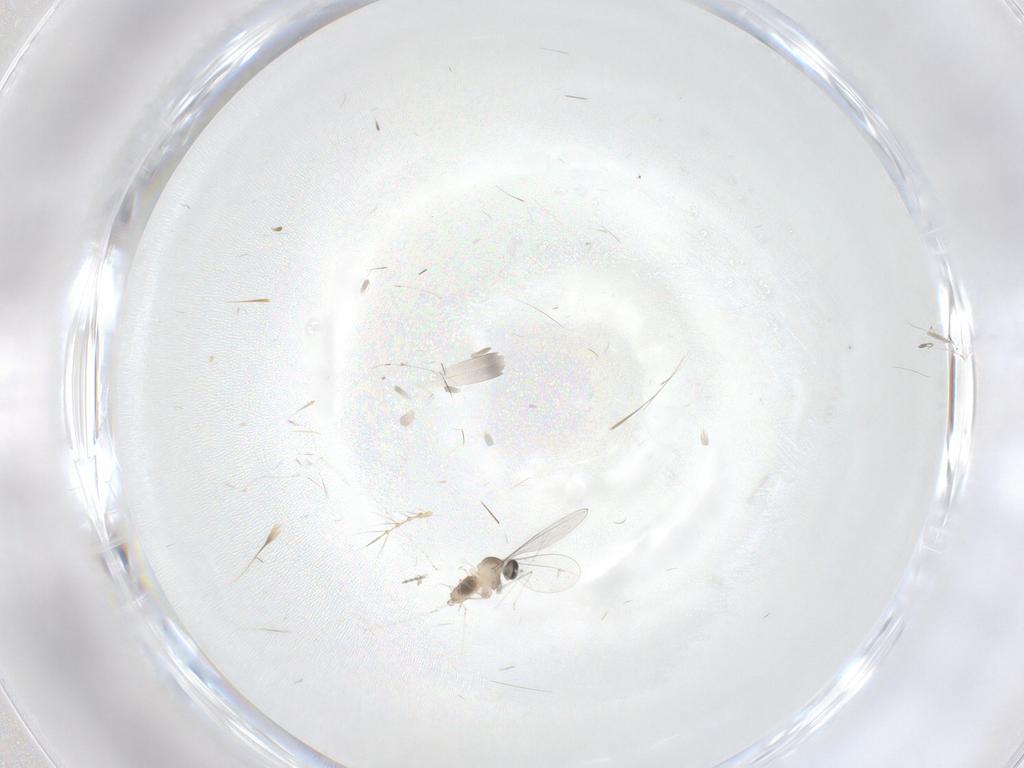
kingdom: Animalia
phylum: Arthropoda
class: Insecta
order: Diptera
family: Cecidomyiidae
